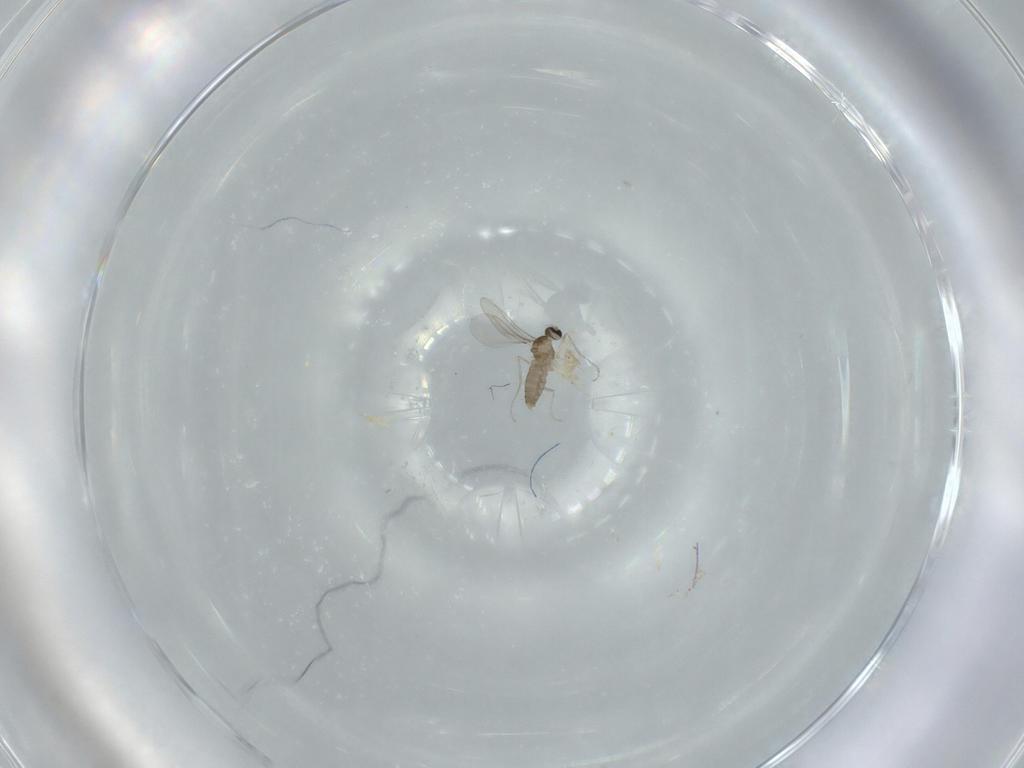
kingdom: Animalia
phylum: Arthropoda
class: Insecta
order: Diptera
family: Cecidomyiidae
